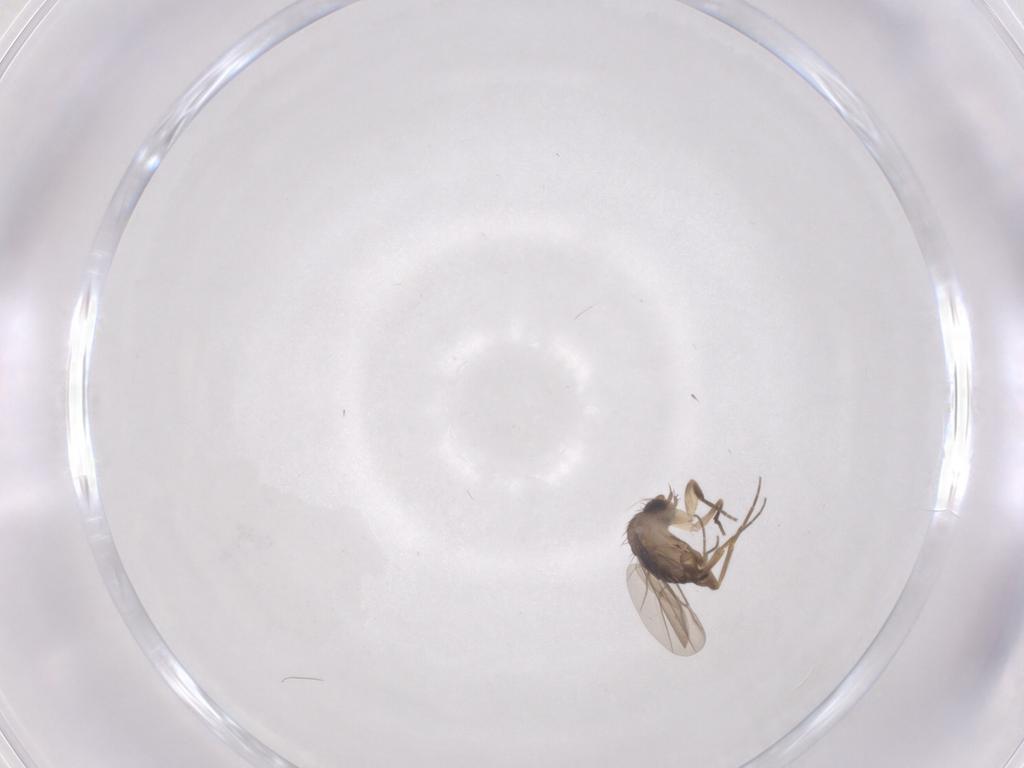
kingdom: Animalia
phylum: Arthropoda
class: Insecta
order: Diptera
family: Phoridae
